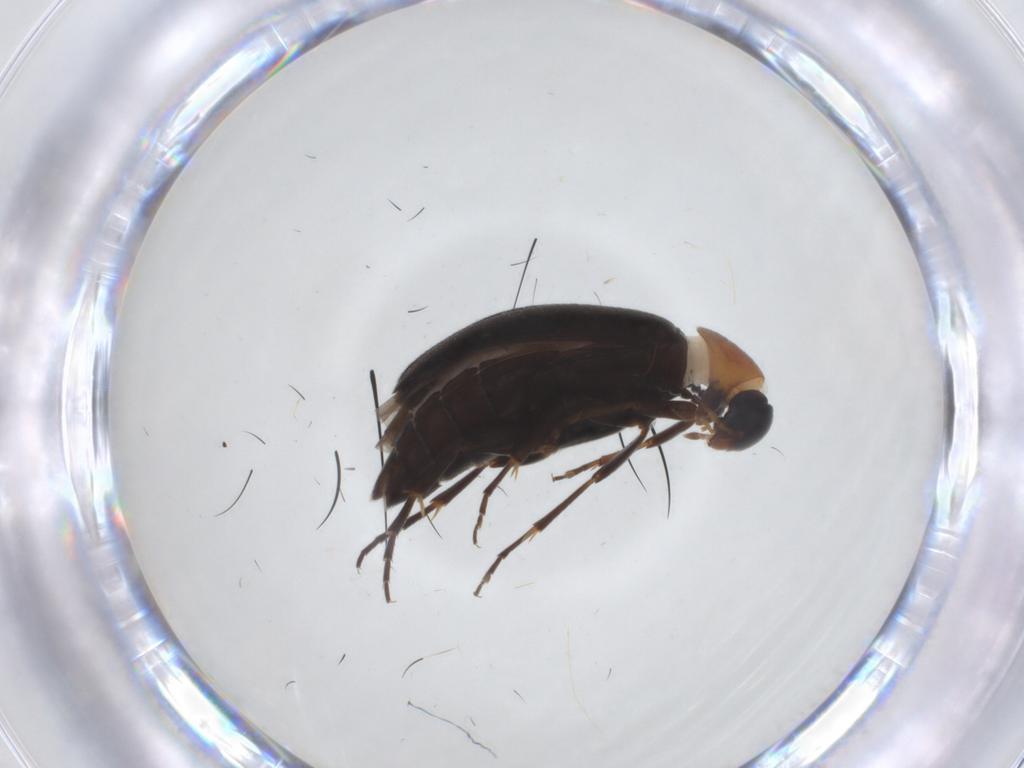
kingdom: Animalia
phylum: Arthropoda
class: Insecta
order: Coleoptera
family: Scraptiidae
